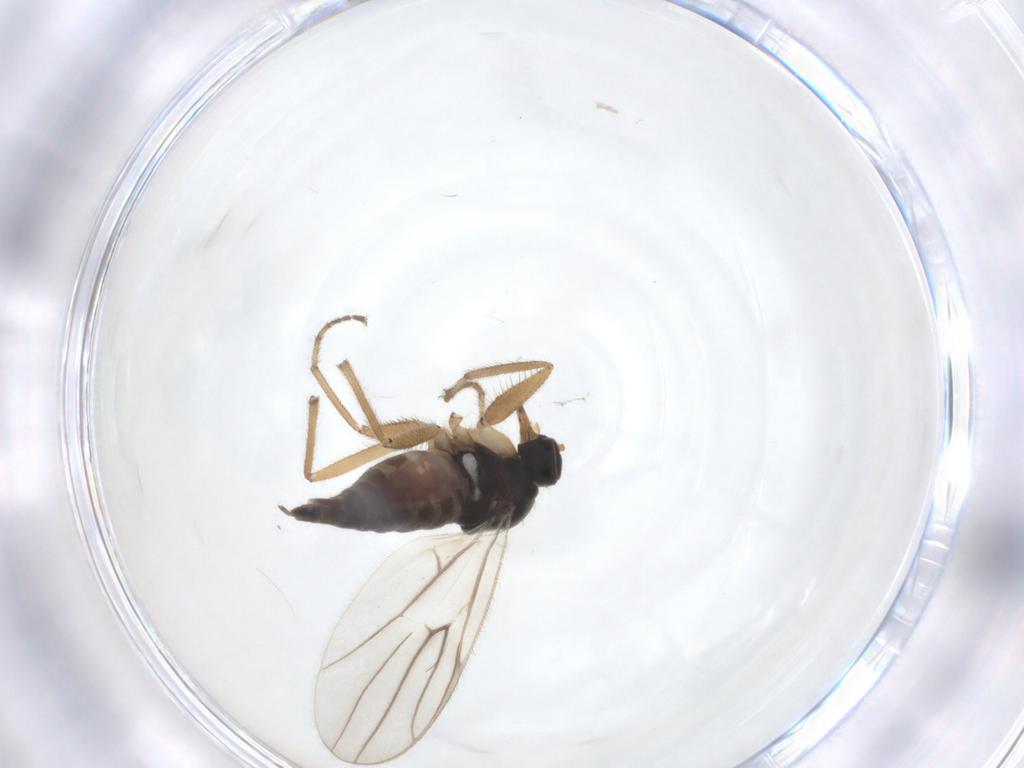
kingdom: Animalia
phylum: Arthropoda
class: Insecta
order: Diptera
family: Hybotidae
